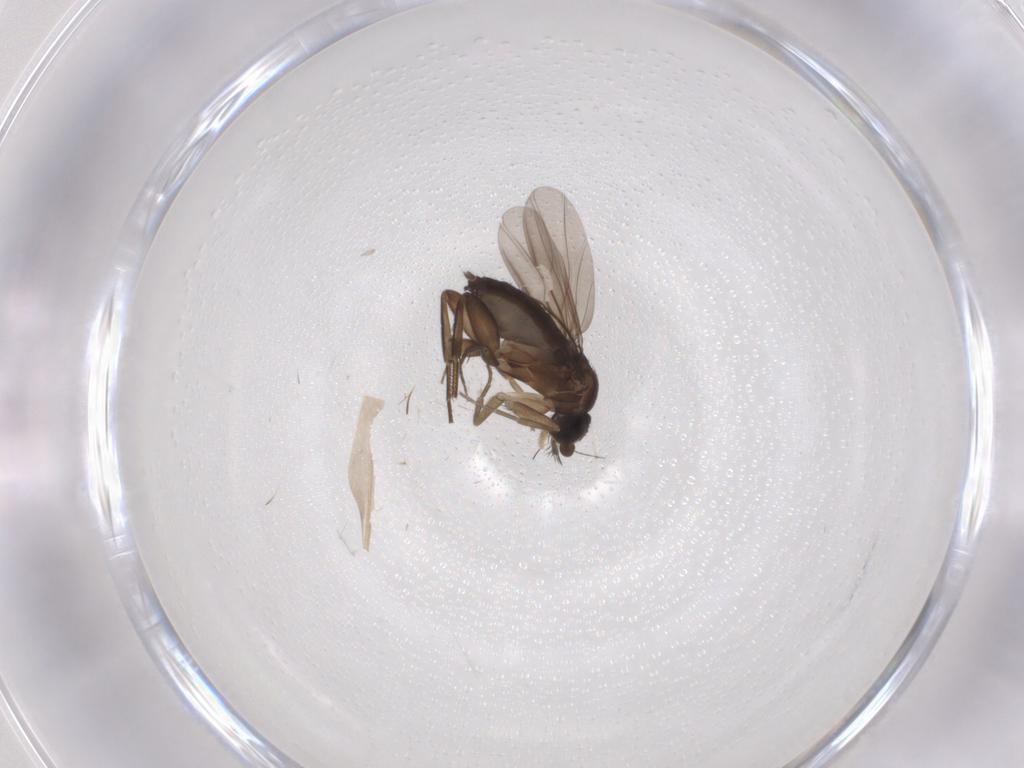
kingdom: Animalia
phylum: Arthropoda
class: Insecta
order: Diptera
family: Phoridae
